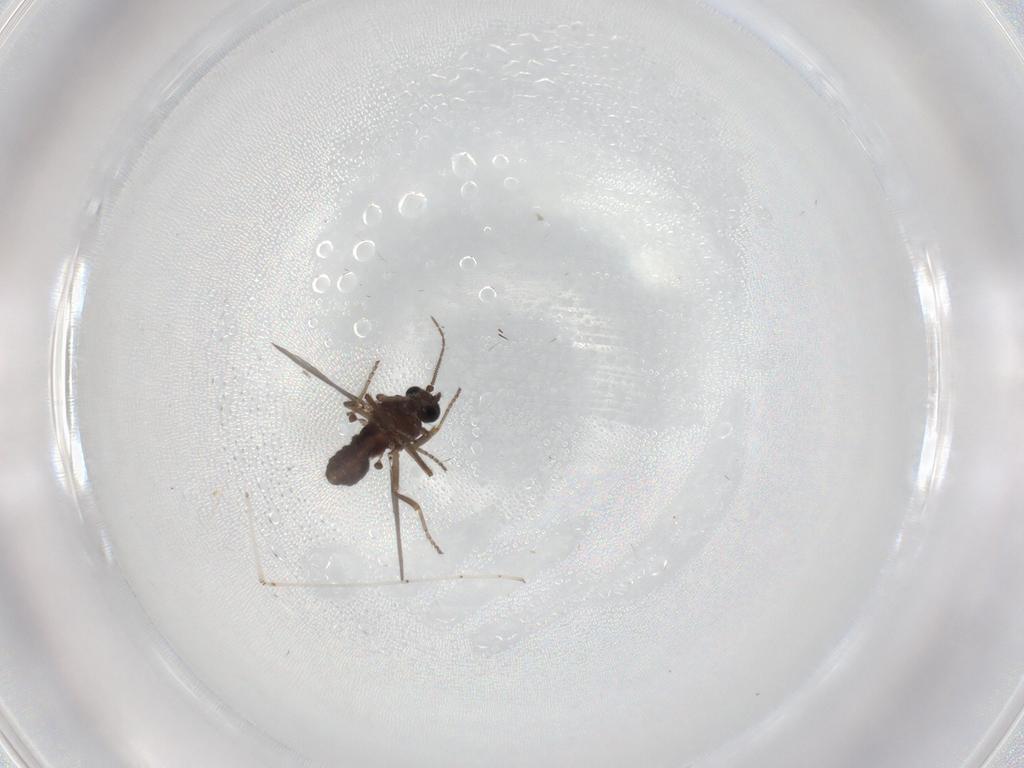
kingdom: Animalia
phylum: Arthropoda
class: Insecta
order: Diptera
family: Ceratopogonidae
